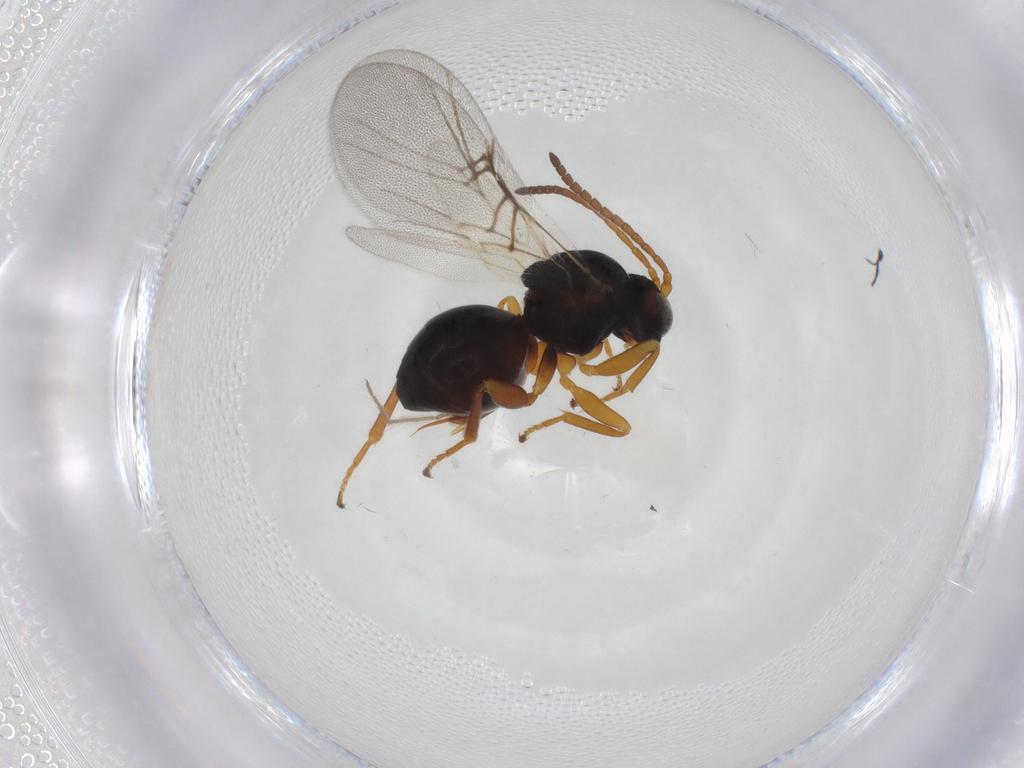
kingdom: Animalia
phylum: Arthropoda
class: Insecta
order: Hymenoptera
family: Cynipidae
